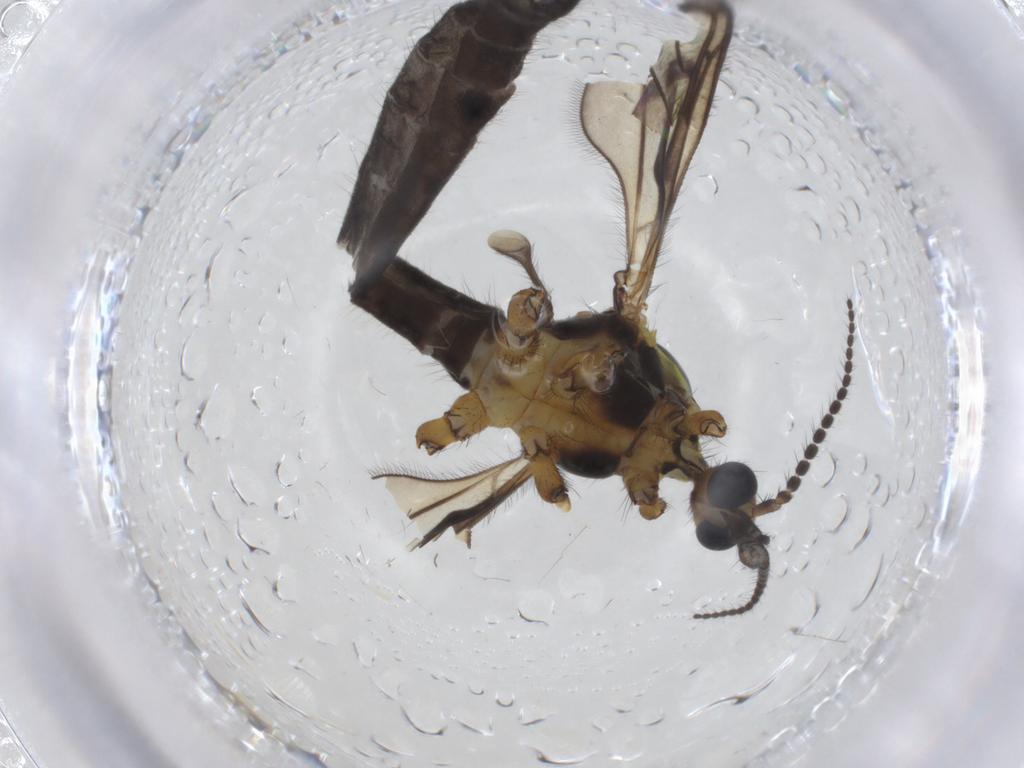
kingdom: Animalia
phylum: Arthropoda
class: Insecta
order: Diptera
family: Limoniidae
